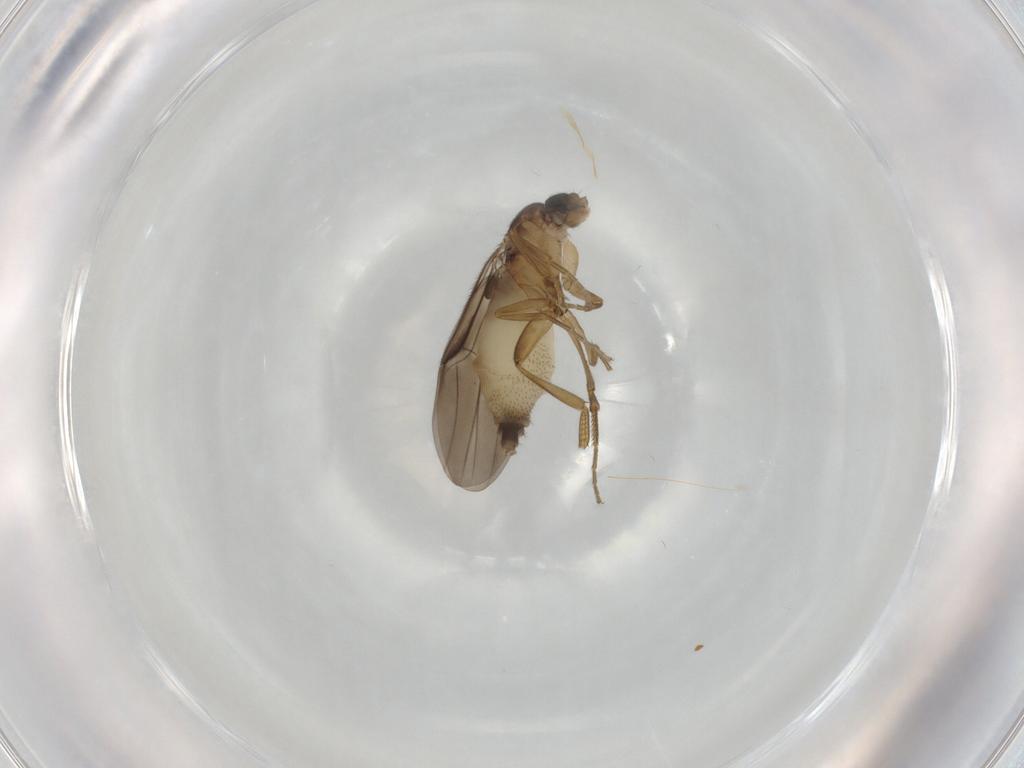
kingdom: Animalia
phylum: Arthropoda
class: Insecta
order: Diptera
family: Phoridae
